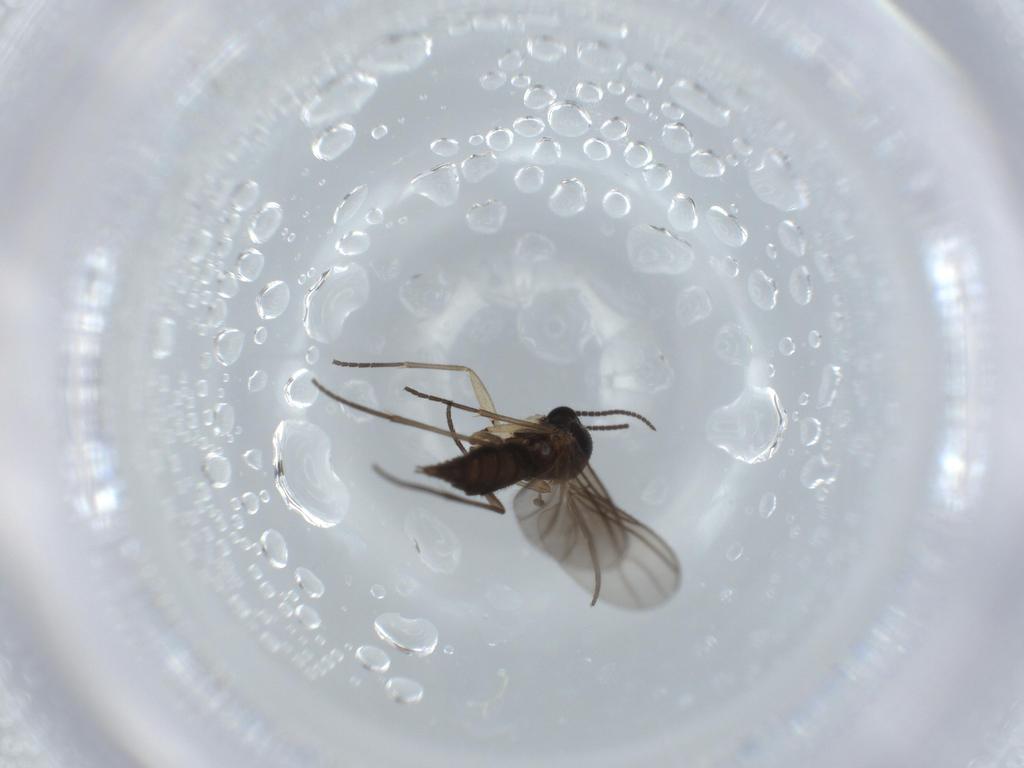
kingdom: Animalia
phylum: Arthropoda
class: Insecta
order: Diptera
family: Sciaridae
